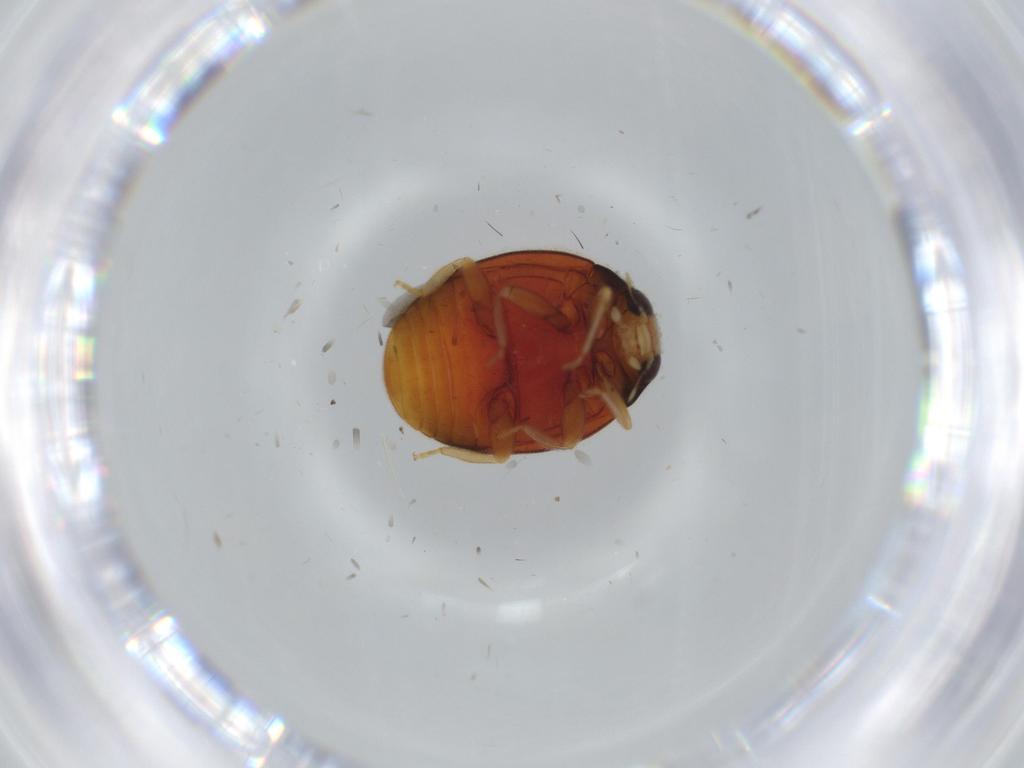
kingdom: Animalia
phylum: Arthropoda
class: Insecta
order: Coleoptera
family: Coccinellidae
